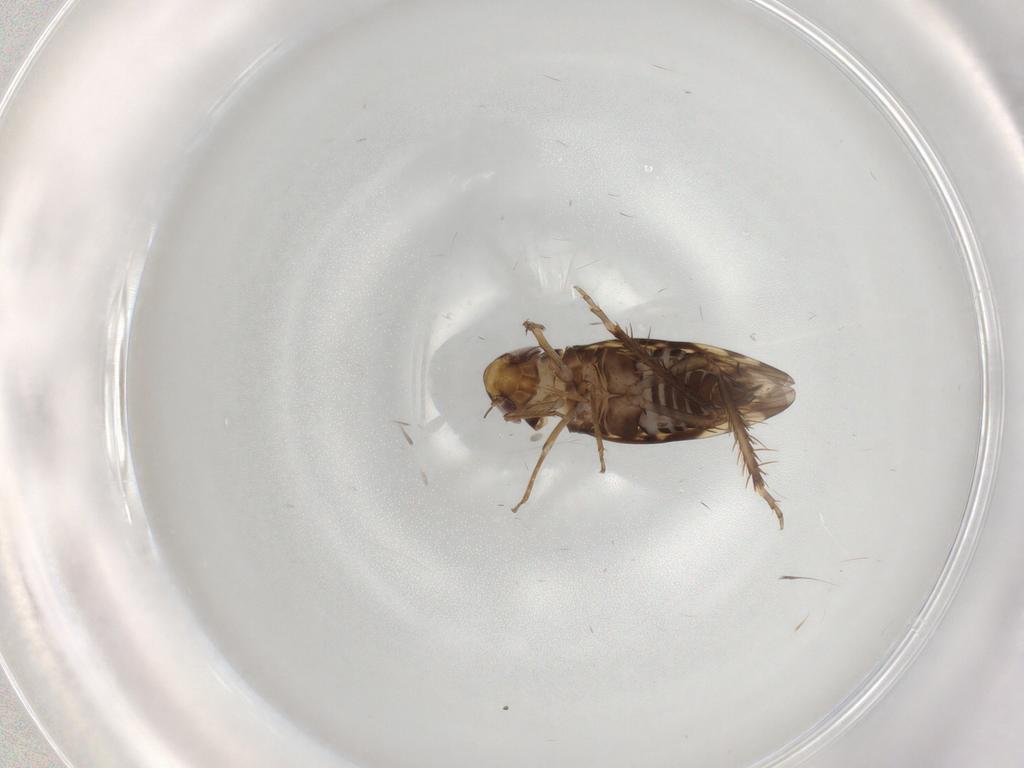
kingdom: Animalia
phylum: Arthropoda
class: Insecta
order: Hemiptera
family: Cicadellidae
